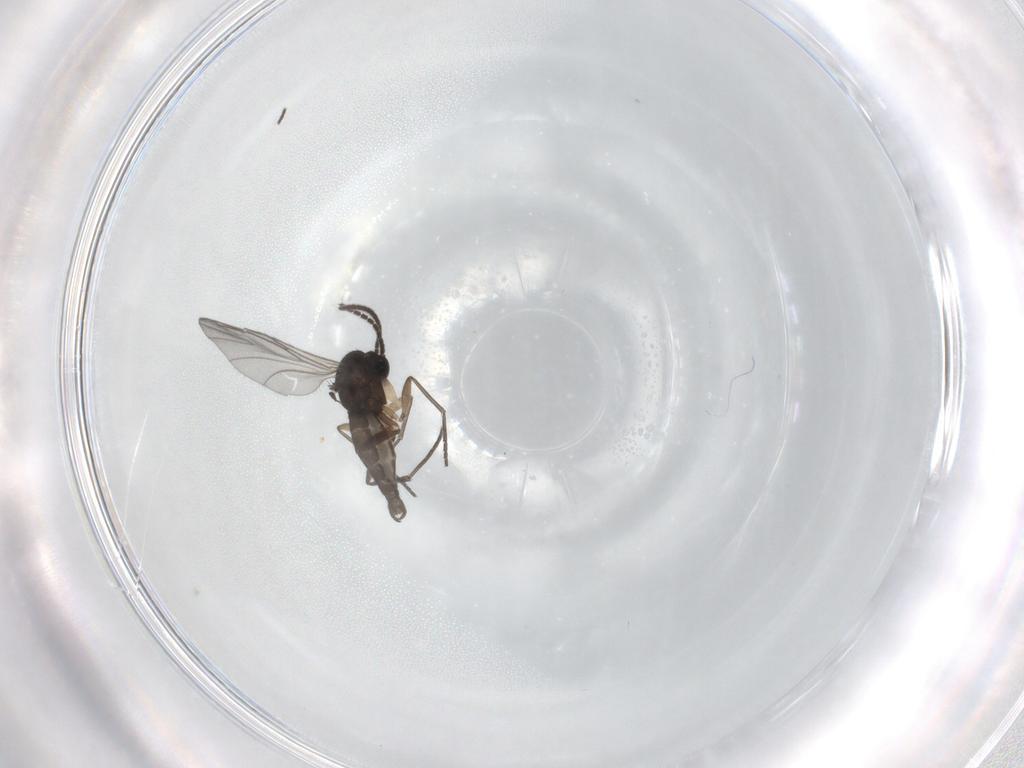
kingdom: Animalia
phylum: Arthropoda
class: Insecta
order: Diptera
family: Sciaridae
